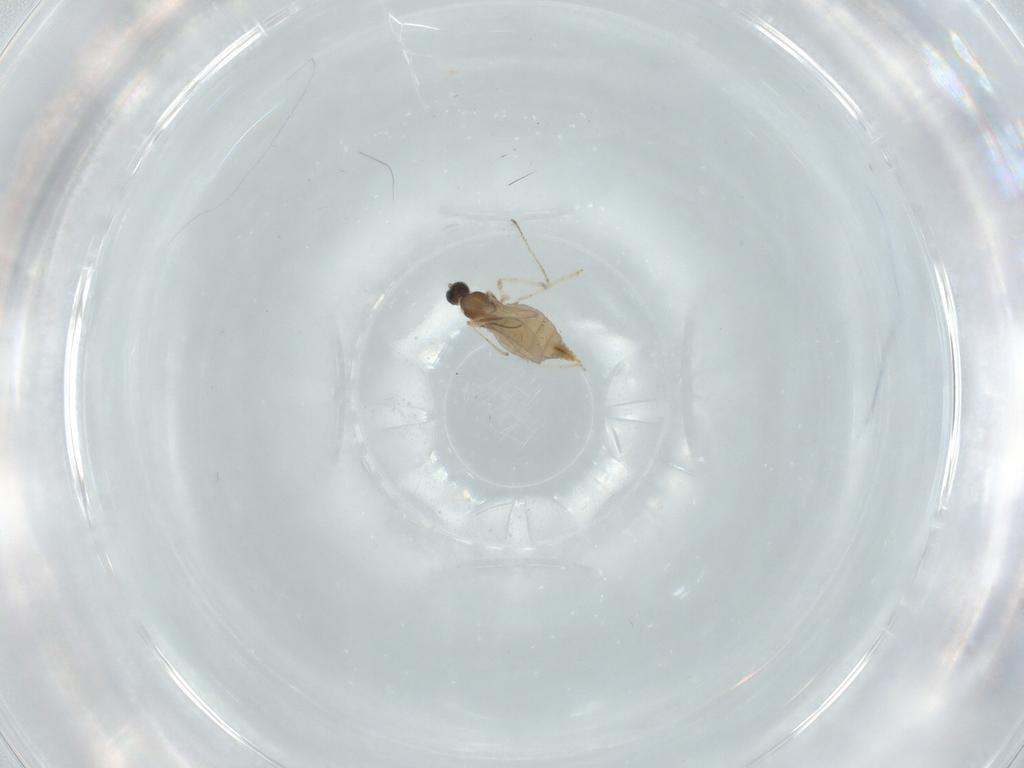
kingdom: Animalia
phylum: Arthropoda
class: Insecta
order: Diptera
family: Cecidomyiidae
